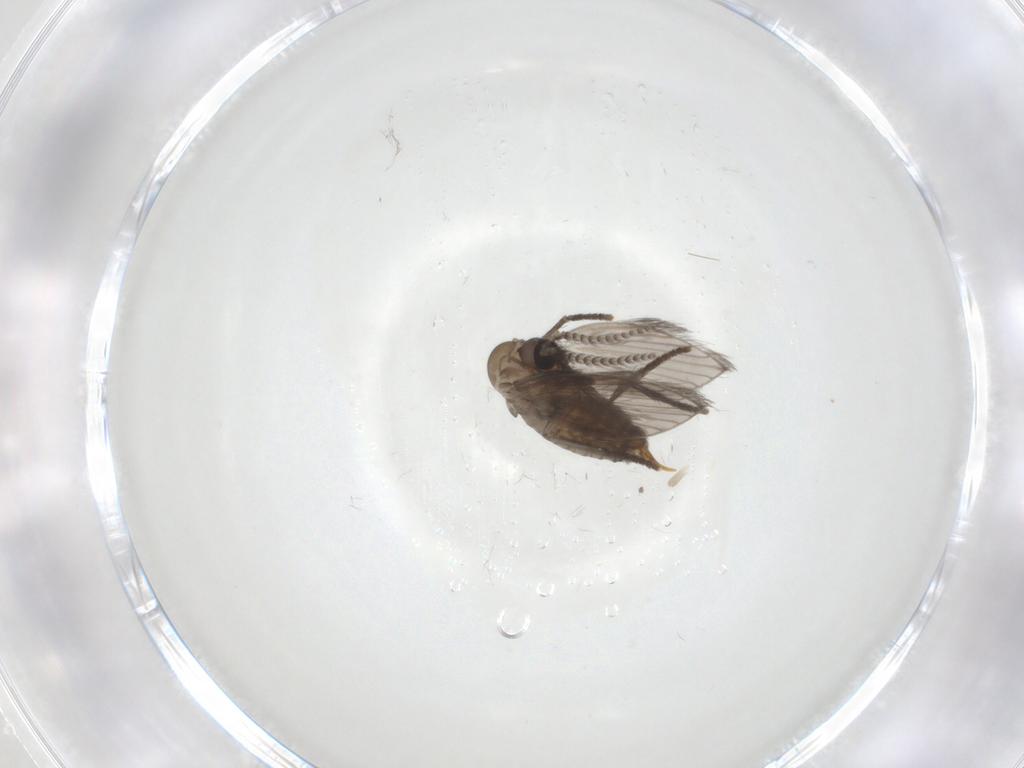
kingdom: Animalia
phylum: Arthropoda
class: Insecta
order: Diptera
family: Psychodidae
